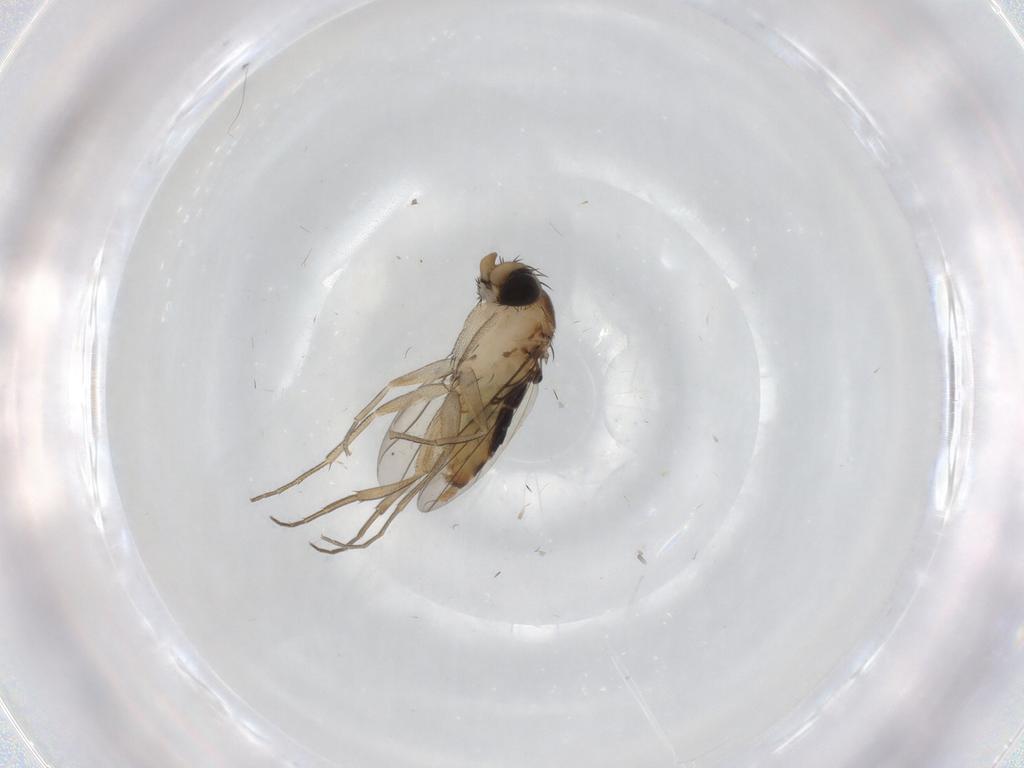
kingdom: Animalia
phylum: Arthropoda
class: Insecta
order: Diptera
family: Phoridae
